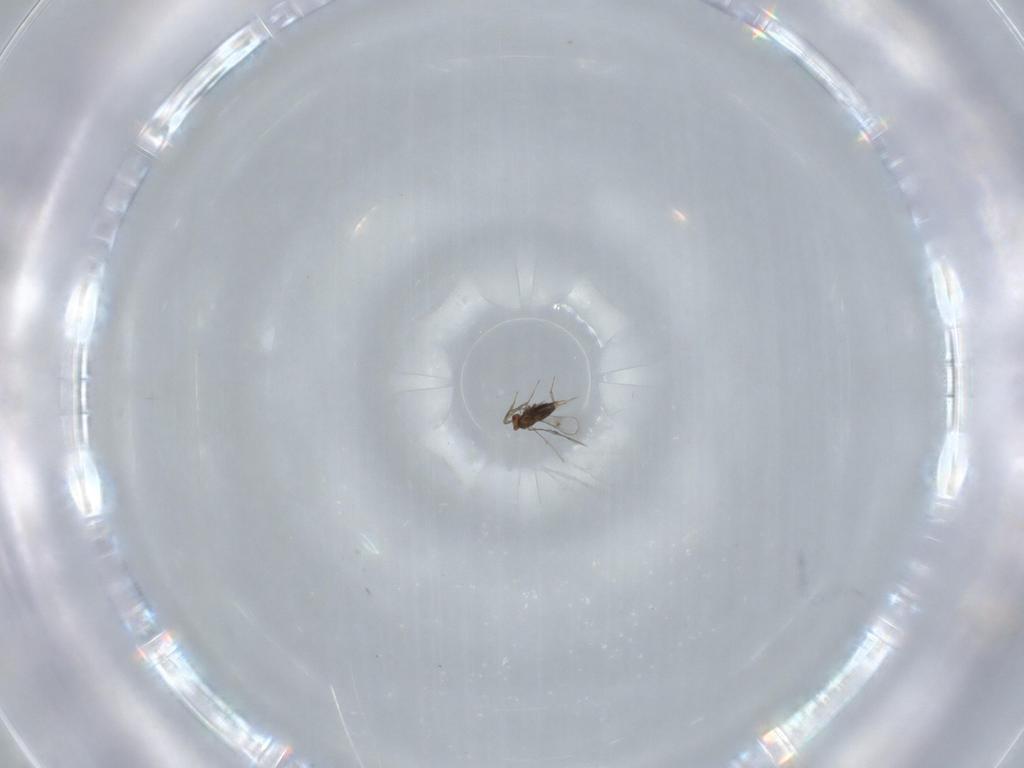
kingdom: Animalia
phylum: Arthropoda
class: Insecta
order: Hymenoptera
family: Trichogrammatidae
